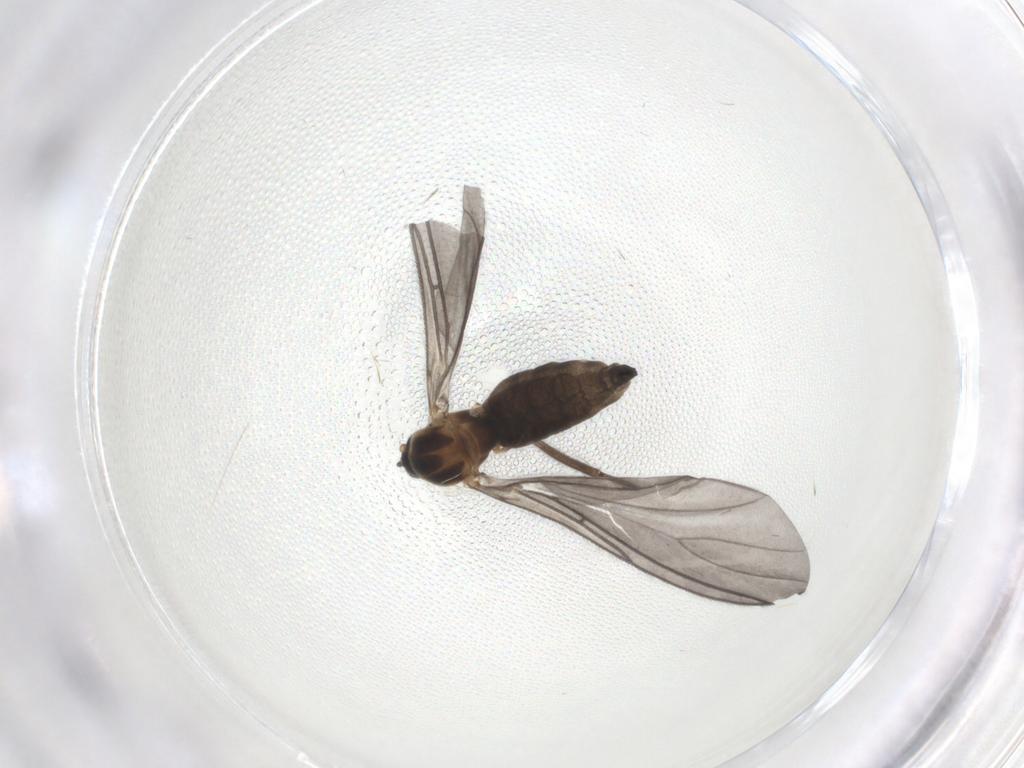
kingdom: Animalia
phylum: Arthropoda
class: Insecta
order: Diptera
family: Sciaridae
